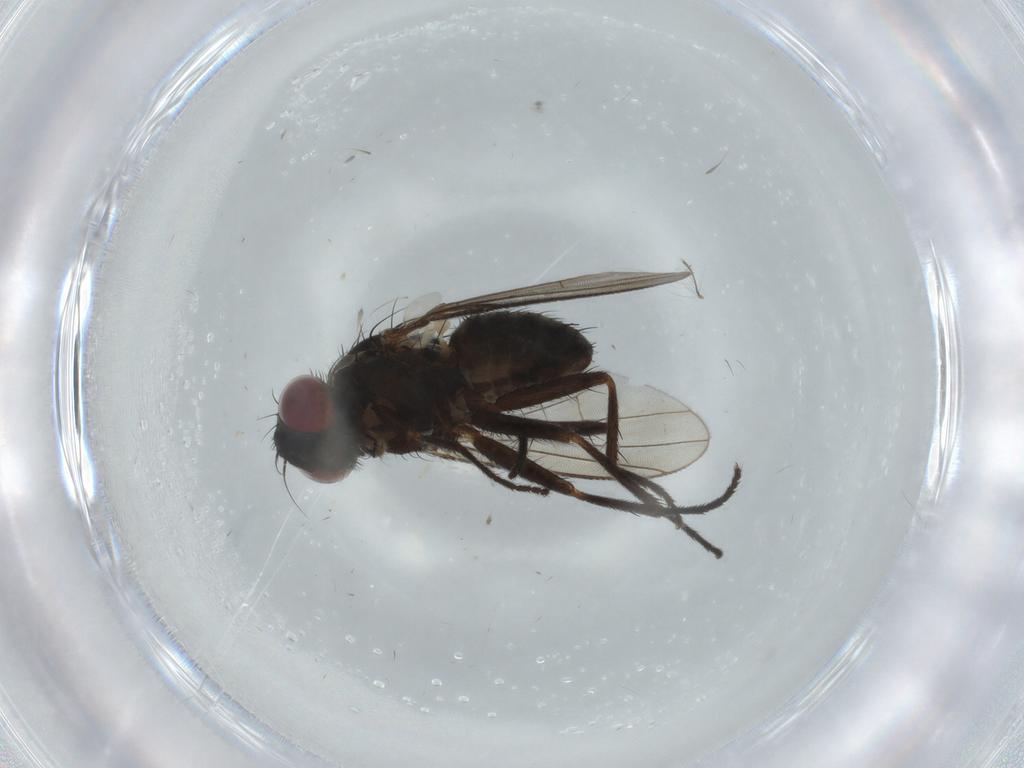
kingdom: Animalia
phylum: Arthropoda
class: Insecta
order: Diptera
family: Muscidae
